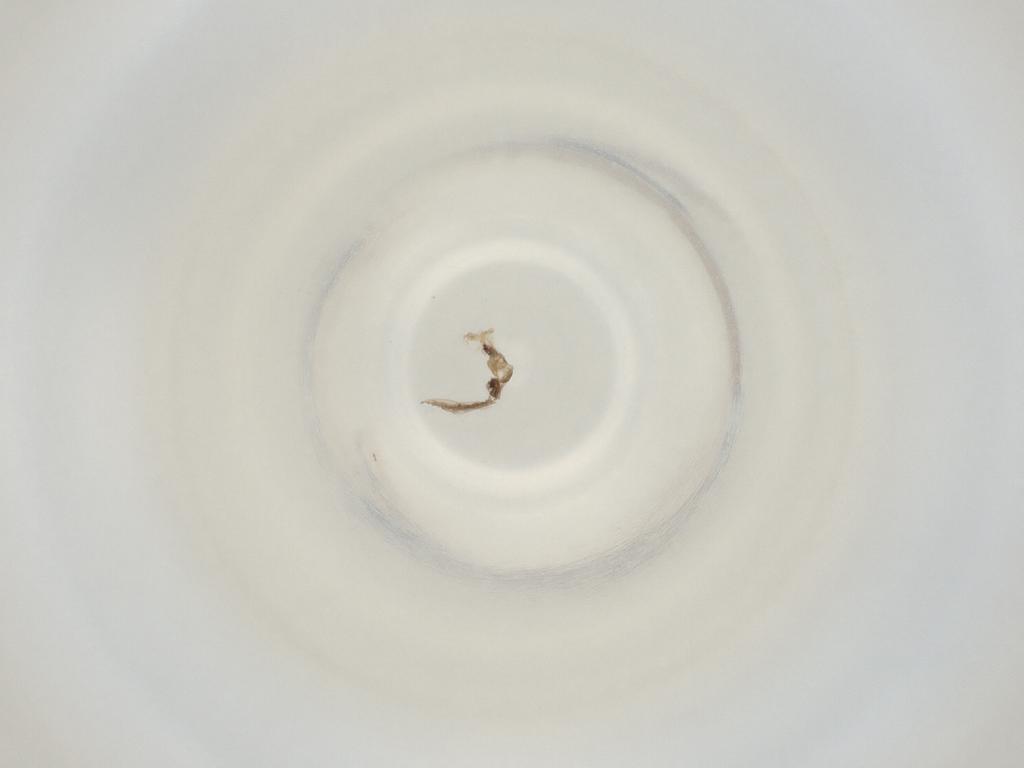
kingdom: Animalia
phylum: Arthropoda
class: Insecta
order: Diptera
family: Cecidomyiidae
